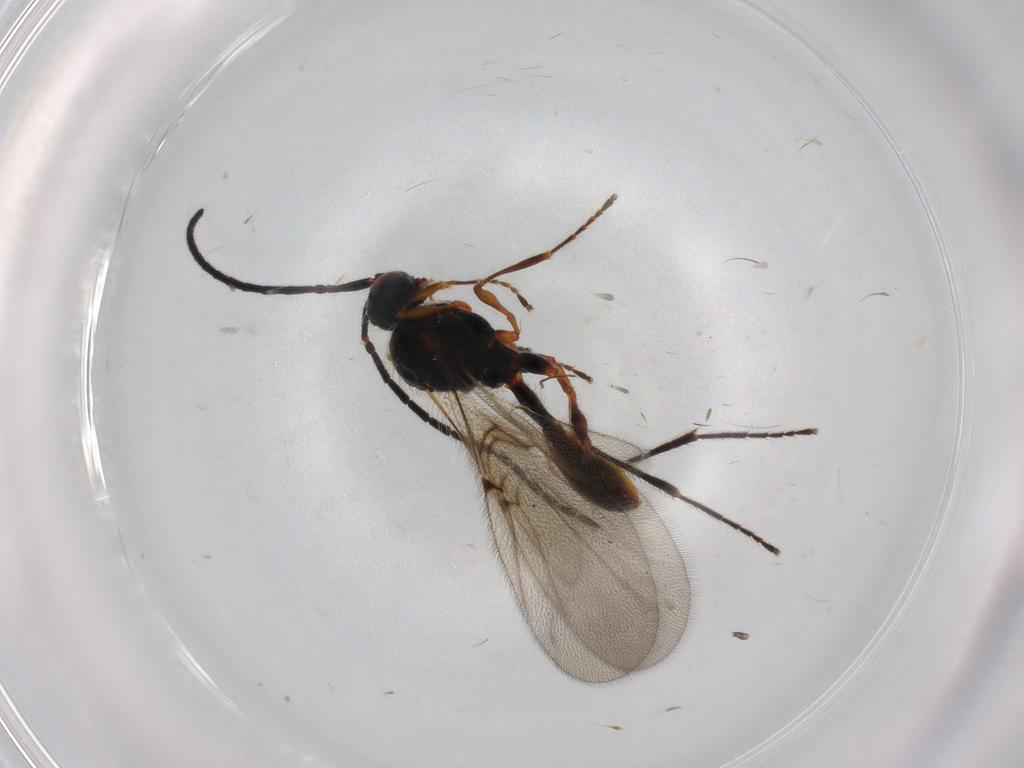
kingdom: Animalia
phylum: Arthropoda
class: Insecta
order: Hymenoptera
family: Diapriidae
